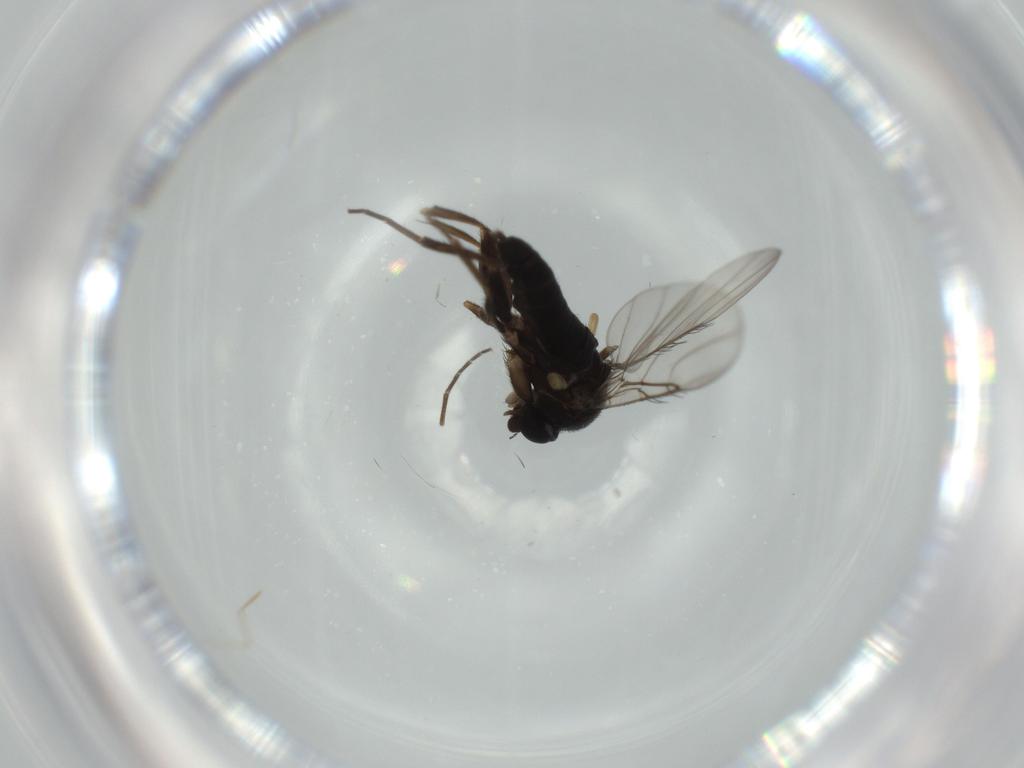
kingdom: Animalia
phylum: Arthropoda
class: Insecta
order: Diptera
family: Phoridae
